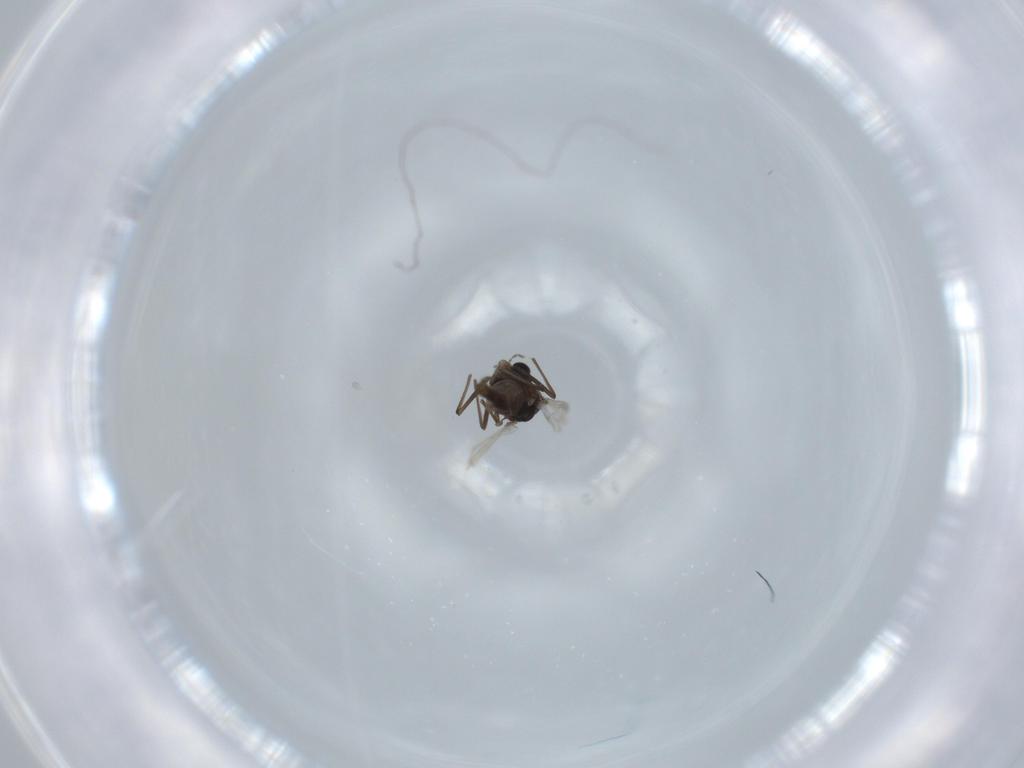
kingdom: Animalia
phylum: Arthropoda
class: Insecta
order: Diptera
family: Chironomidae
